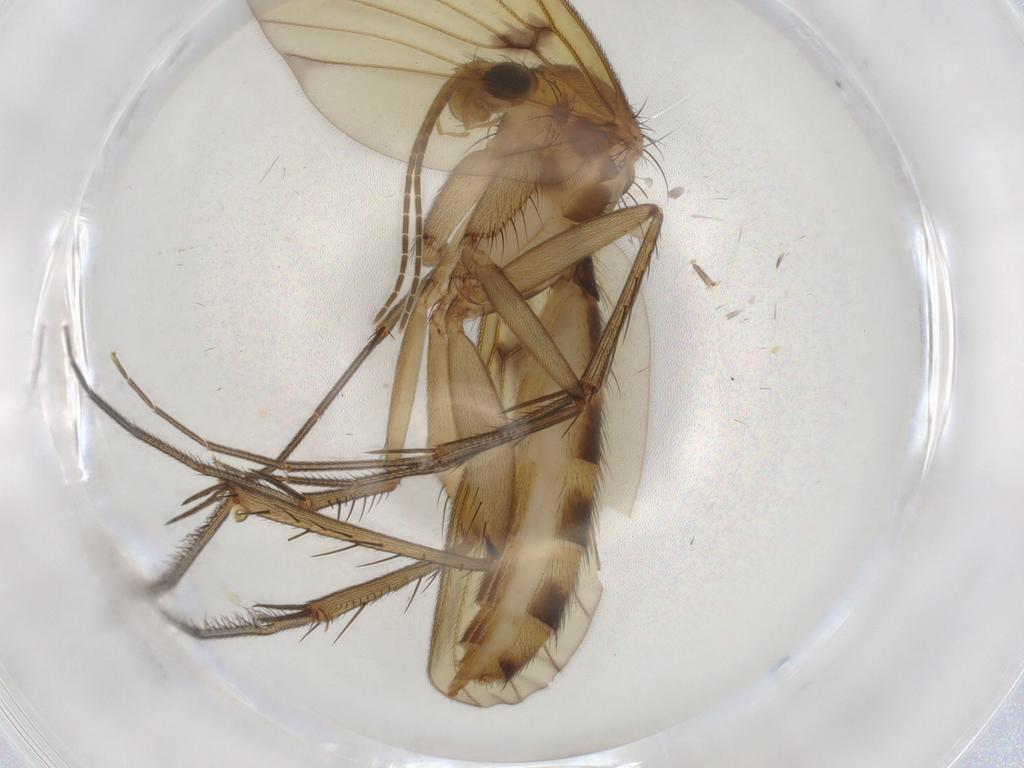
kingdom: Animalia
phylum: Arthropoda
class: Insecta
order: Diptera
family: Mycetophilidae
